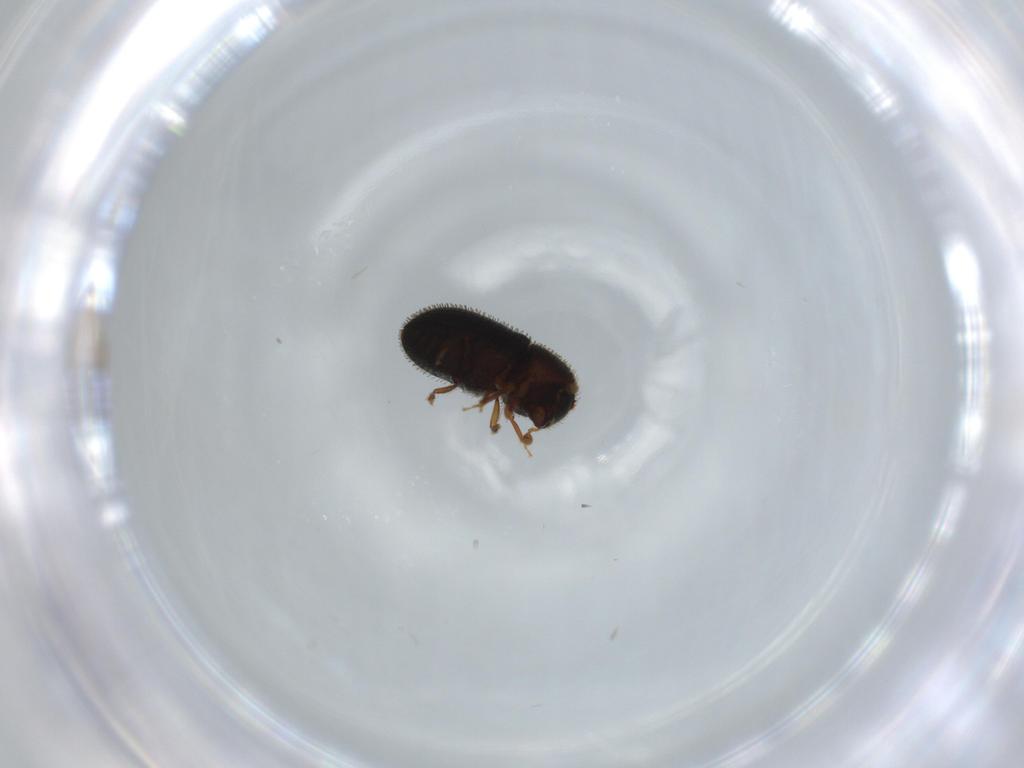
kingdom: Animalia
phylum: Arthropoda
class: Insecta
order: Coleoptera
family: Curculionidae
